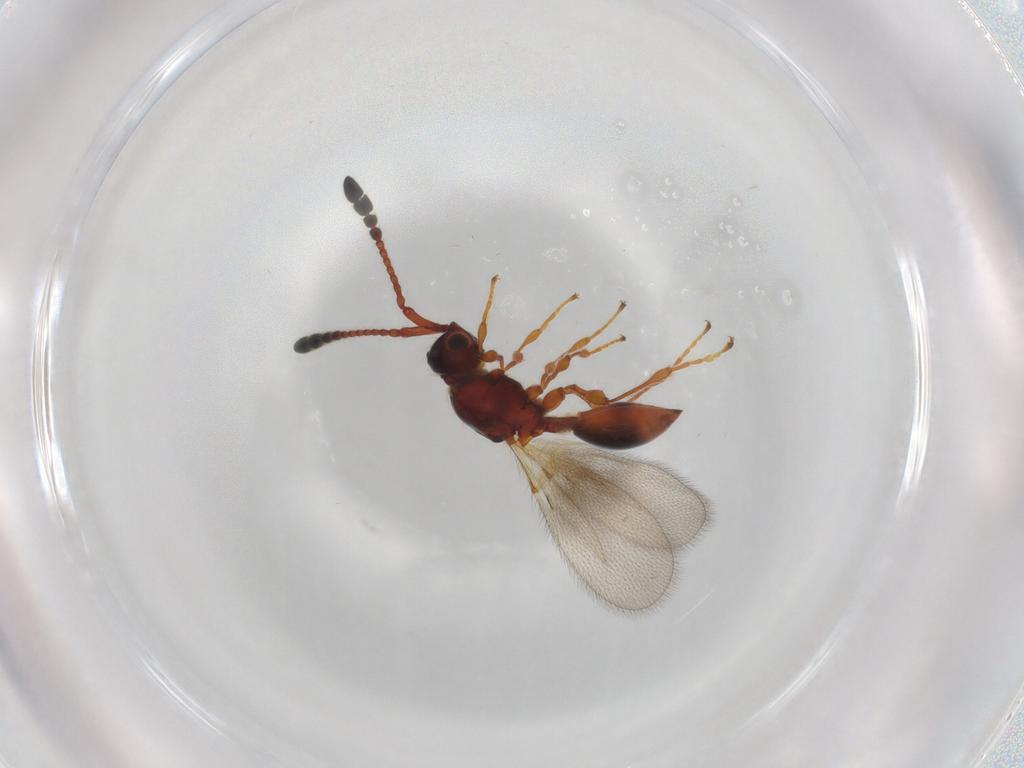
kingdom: Animalia
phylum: Arthropoda
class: Insecta
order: Hymenoptera
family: Diapriidae
